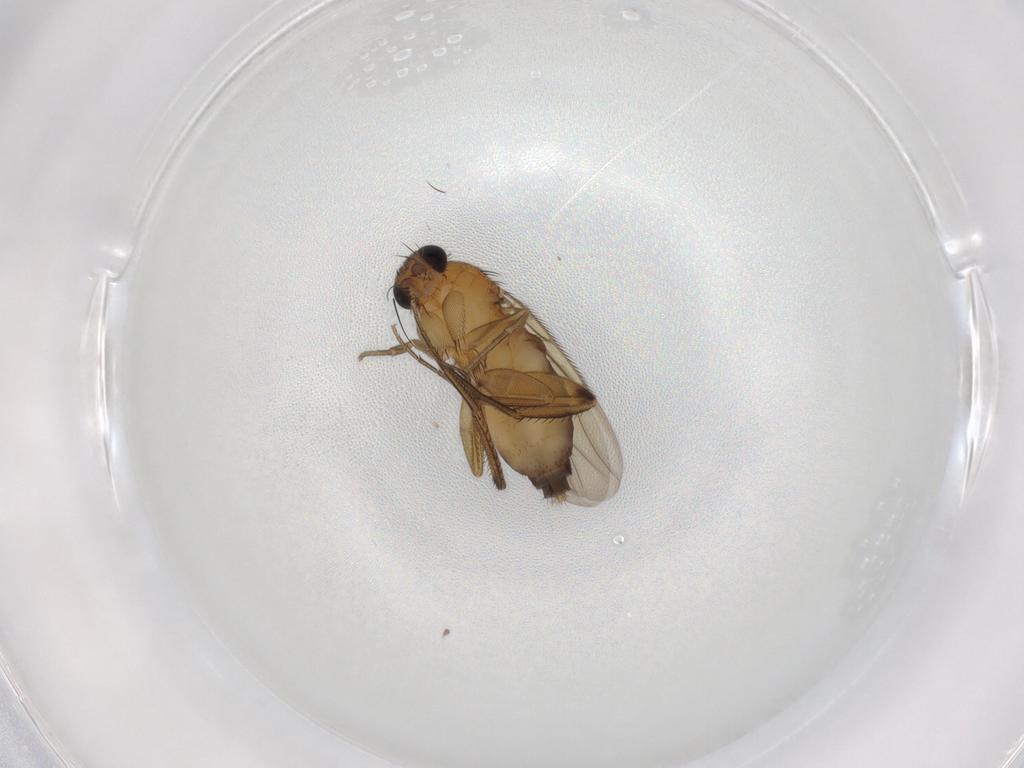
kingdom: Animalia
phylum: Arthropoda
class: Insecta
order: Diptera
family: Phoridae
